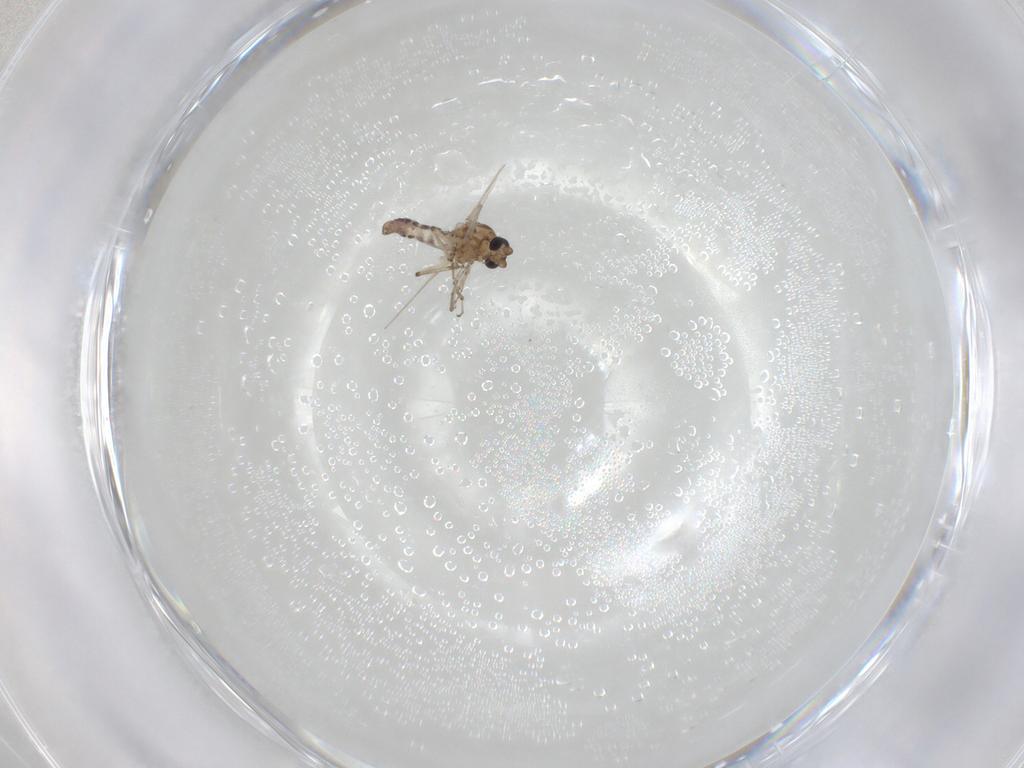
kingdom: Animalia
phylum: Arthropoda
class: Insecta
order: Diptera
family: Ceratopogonidae
